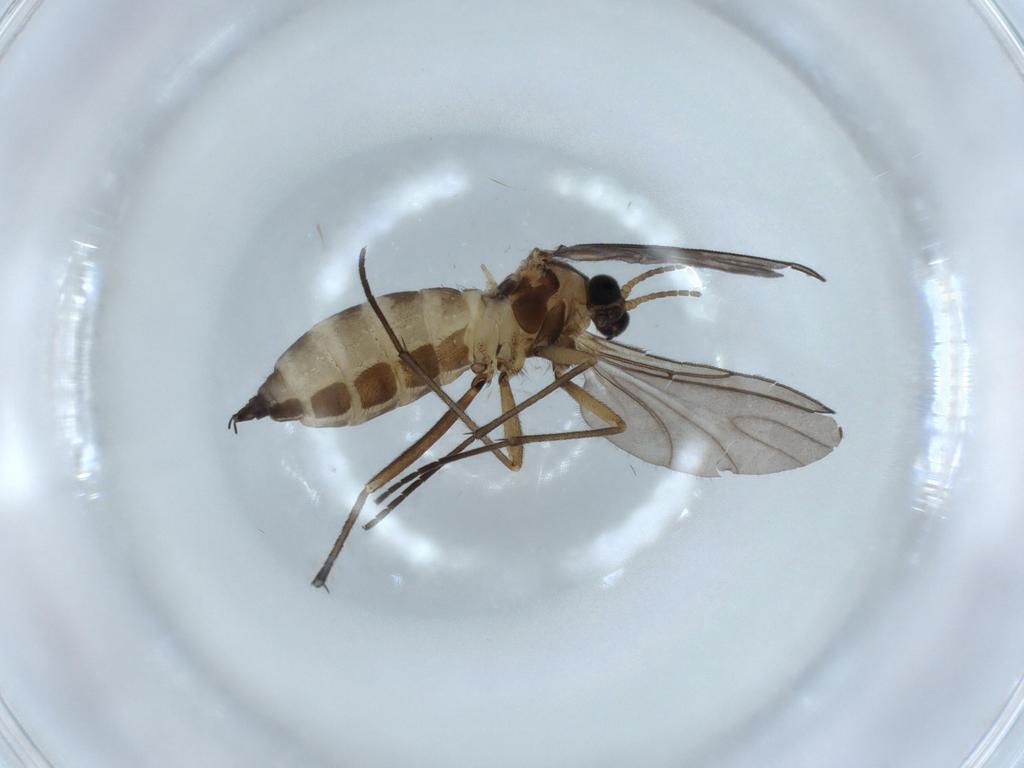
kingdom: Animalia
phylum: Arthropoda
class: Insecta
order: Diptera
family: Sciaridae
